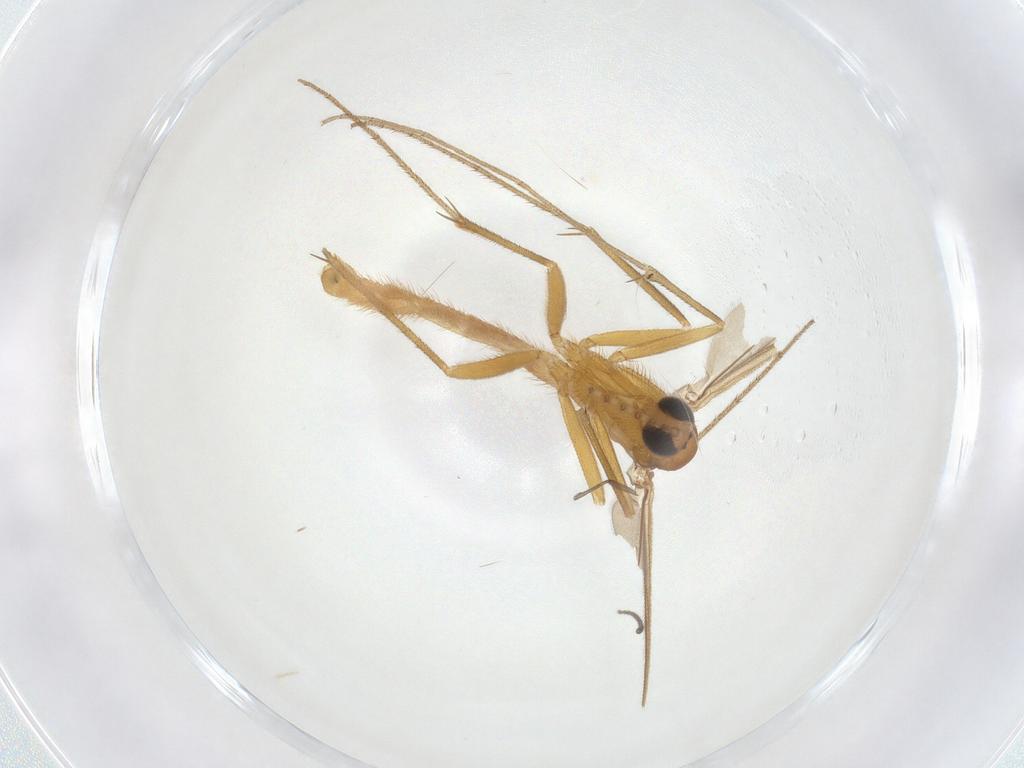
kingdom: Animalia
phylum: Arthropoda
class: Insecta
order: Diptera
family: Mycetophilidae
